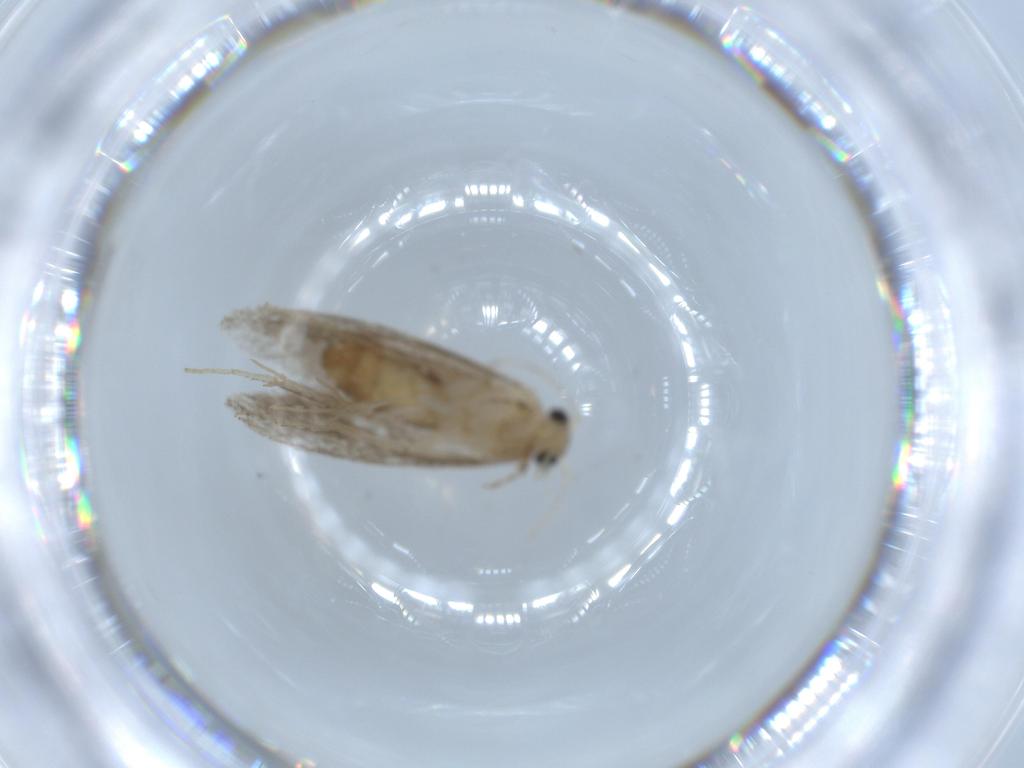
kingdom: Animalia
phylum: Arthropoda
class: Insecta
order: Lepidoptera
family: Tineidae
